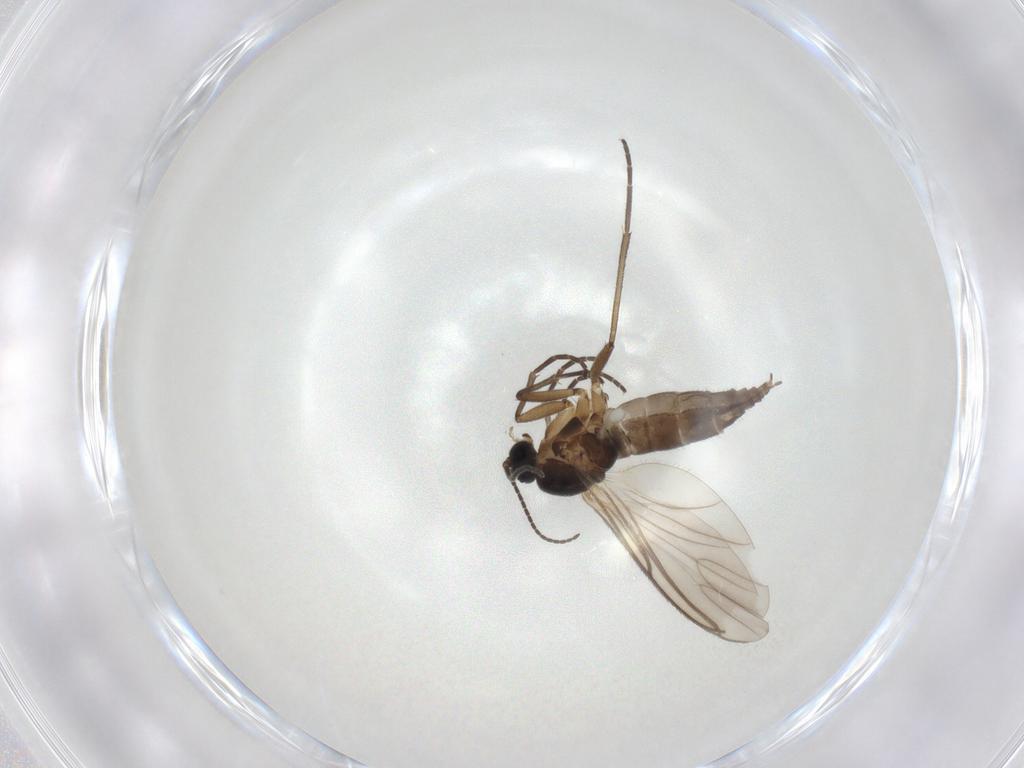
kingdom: Animalia
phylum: Arthropoda
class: Insecta
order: Diptera
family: Chironomidae
